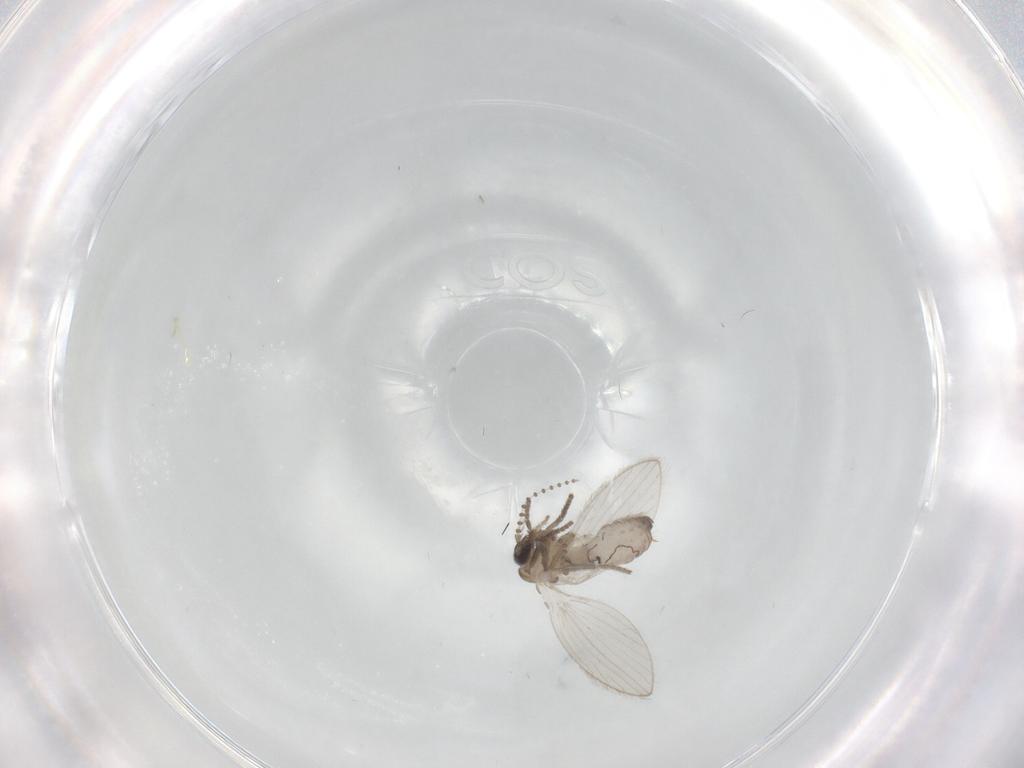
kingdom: Animalia
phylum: Arthropoda
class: Insecta
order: Diptera
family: Psychodidae
